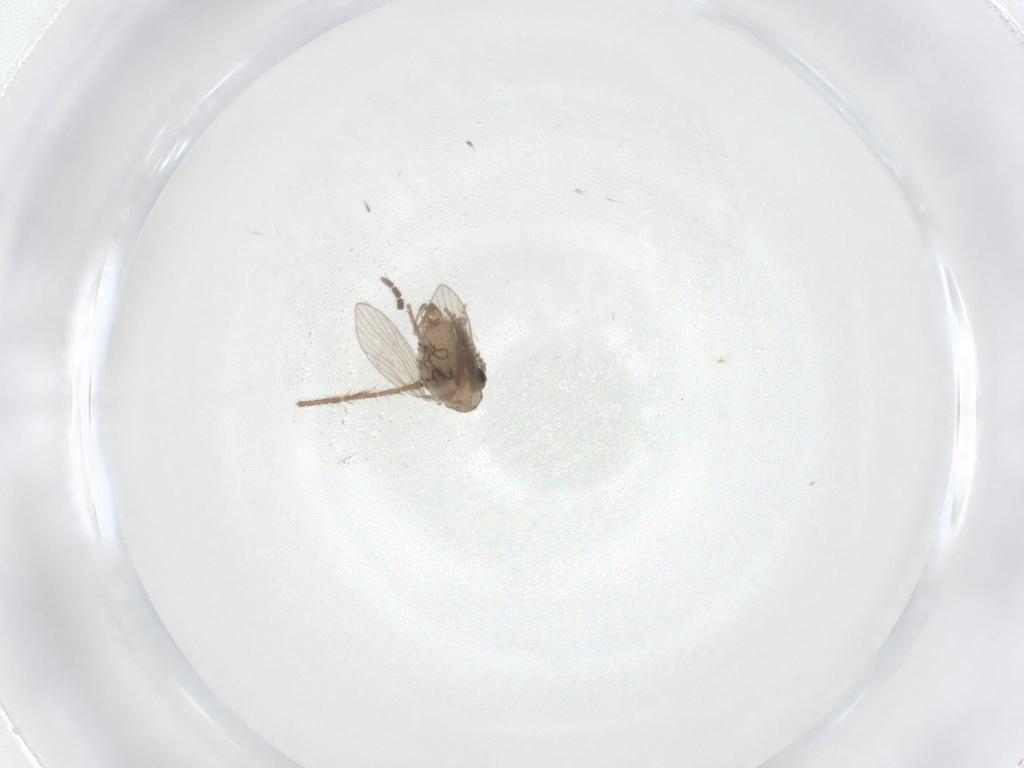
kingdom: Animalia
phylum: Arthropoda
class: Insecta
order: Diptera
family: Psychodidae
